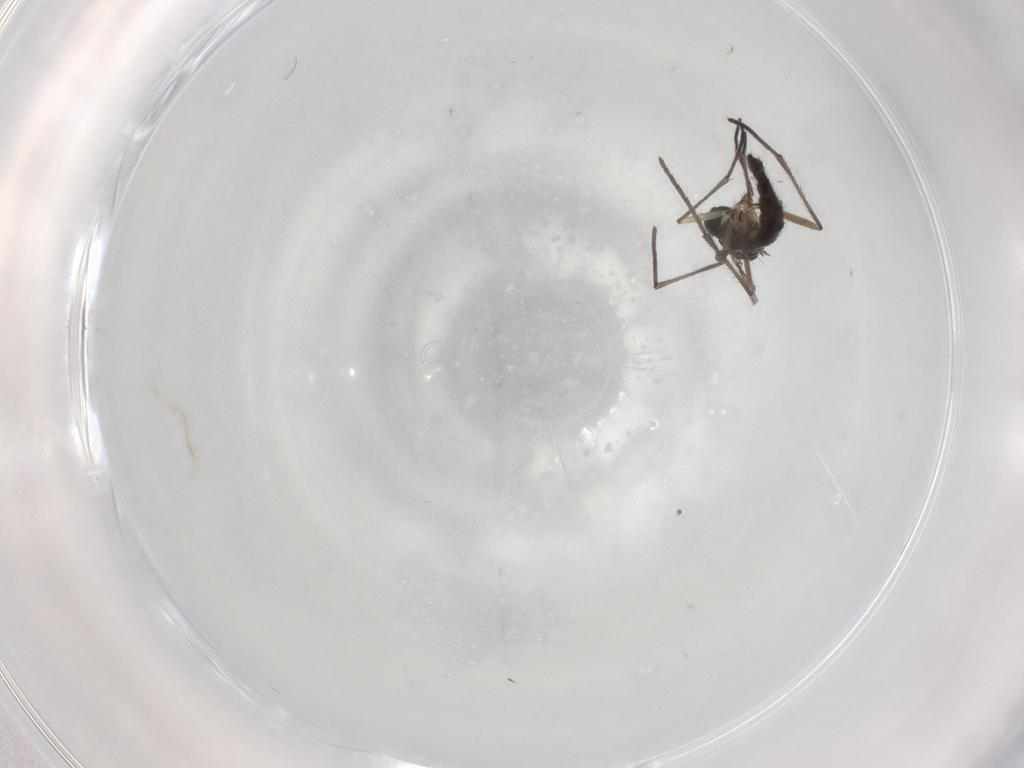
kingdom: Animalia
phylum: Arthropoda
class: Insecta
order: Diptera
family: Sciaridae
